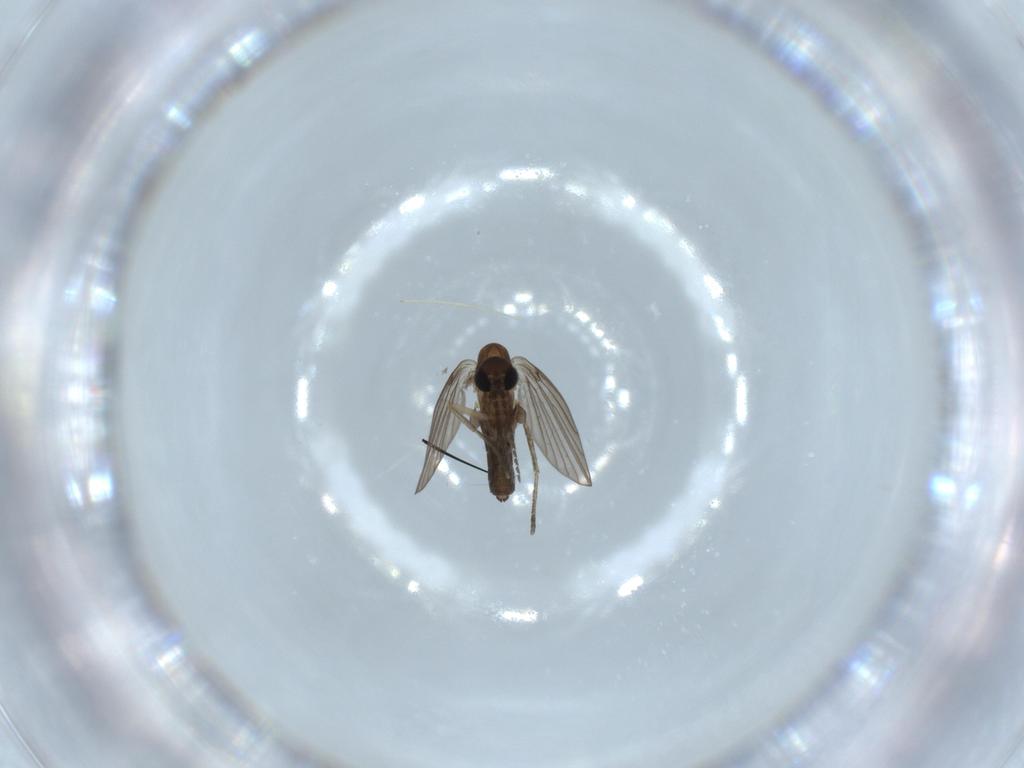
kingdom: Animalia
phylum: Arthropoda
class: Insecta
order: Diptera
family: Psychodidae
